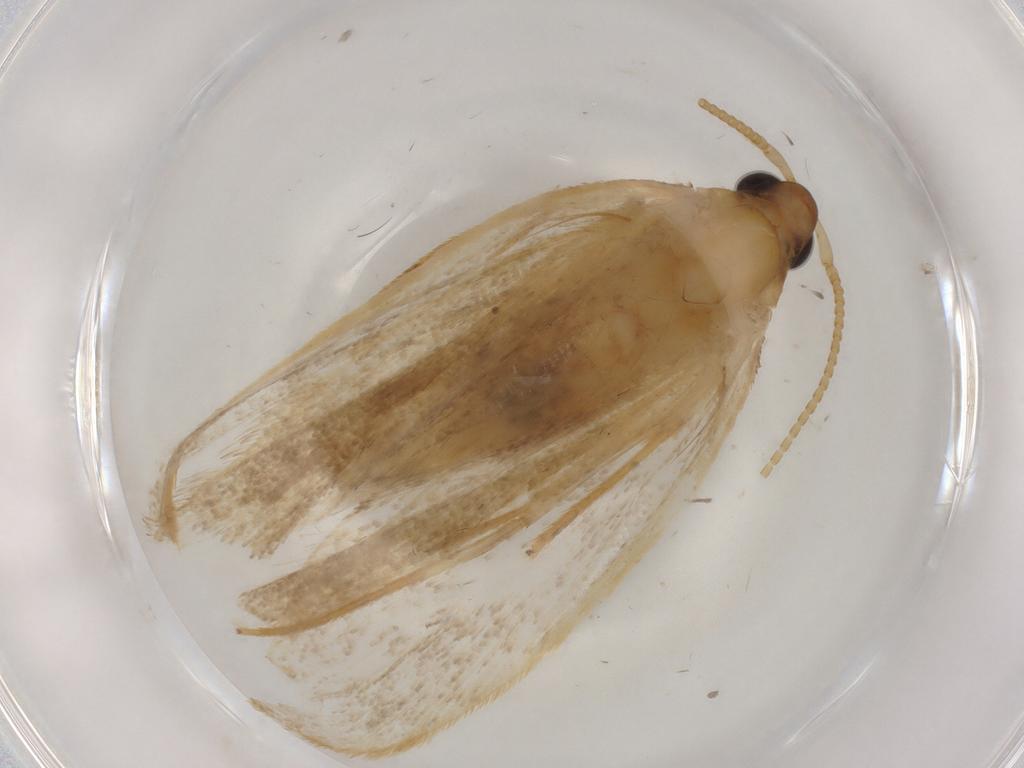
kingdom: Animalia
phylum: Arthropoda
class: Insecta
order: Lepidoptera
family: Lecithoceridae
